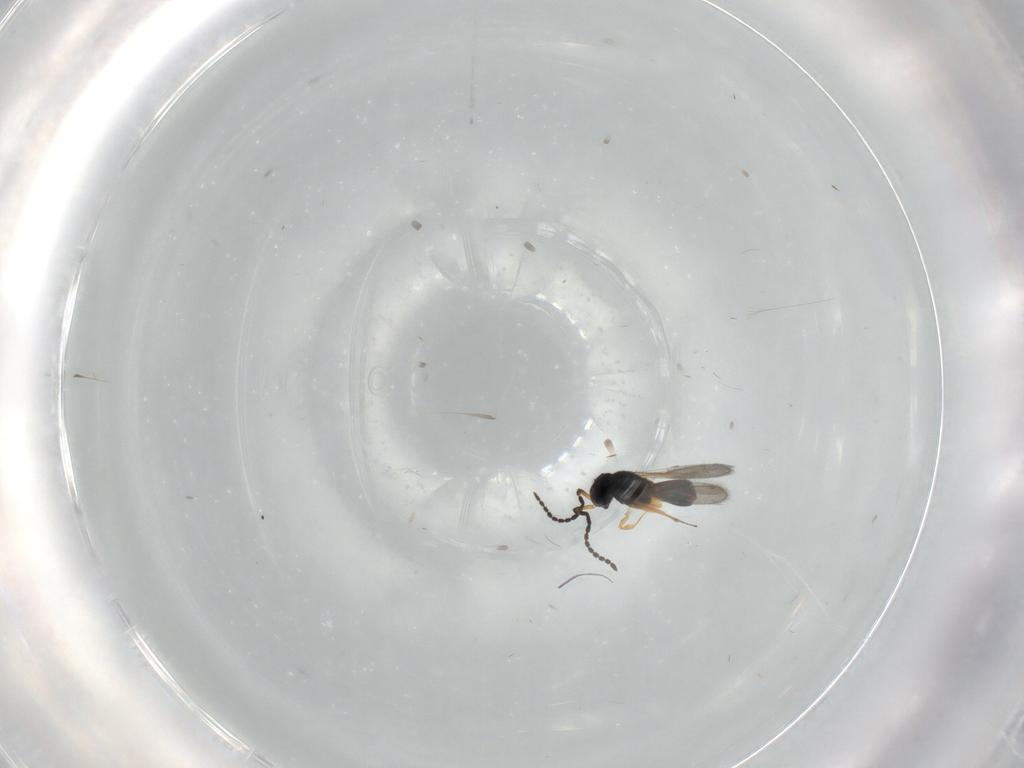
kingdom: Animalia
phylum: Arthropoda
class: Insecta
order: Hymenoptera
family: Scelionidae
